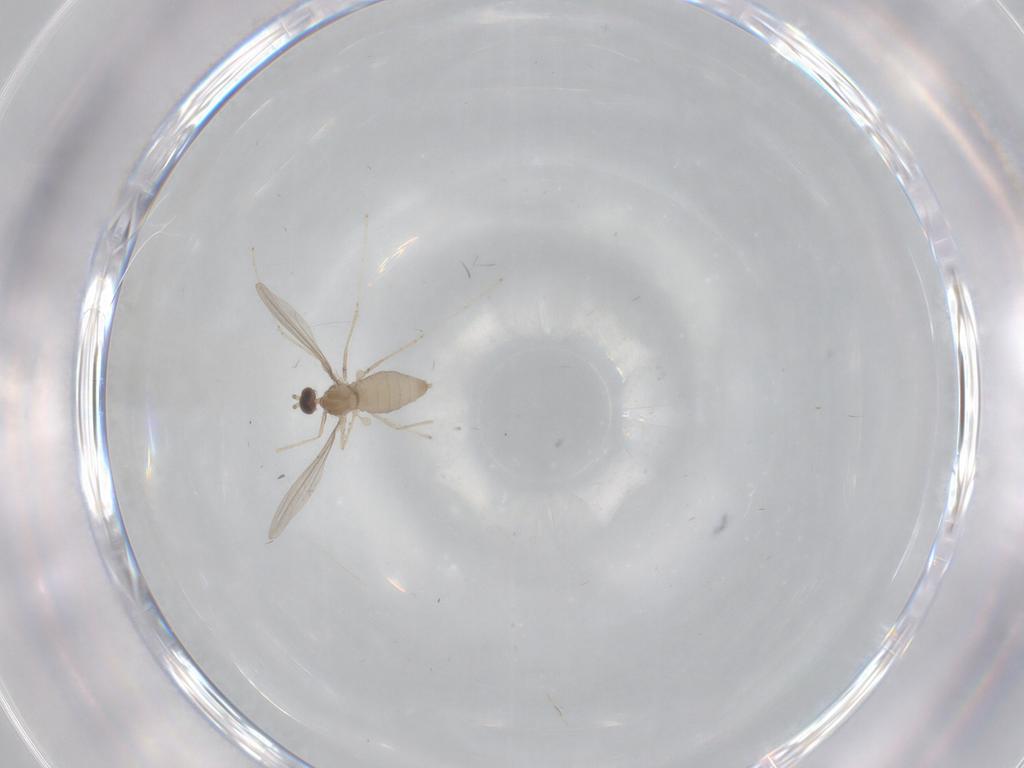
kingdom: Animalia
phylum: Arthropoda
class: Insecta
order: Diptera
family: Cecidomyiidae
